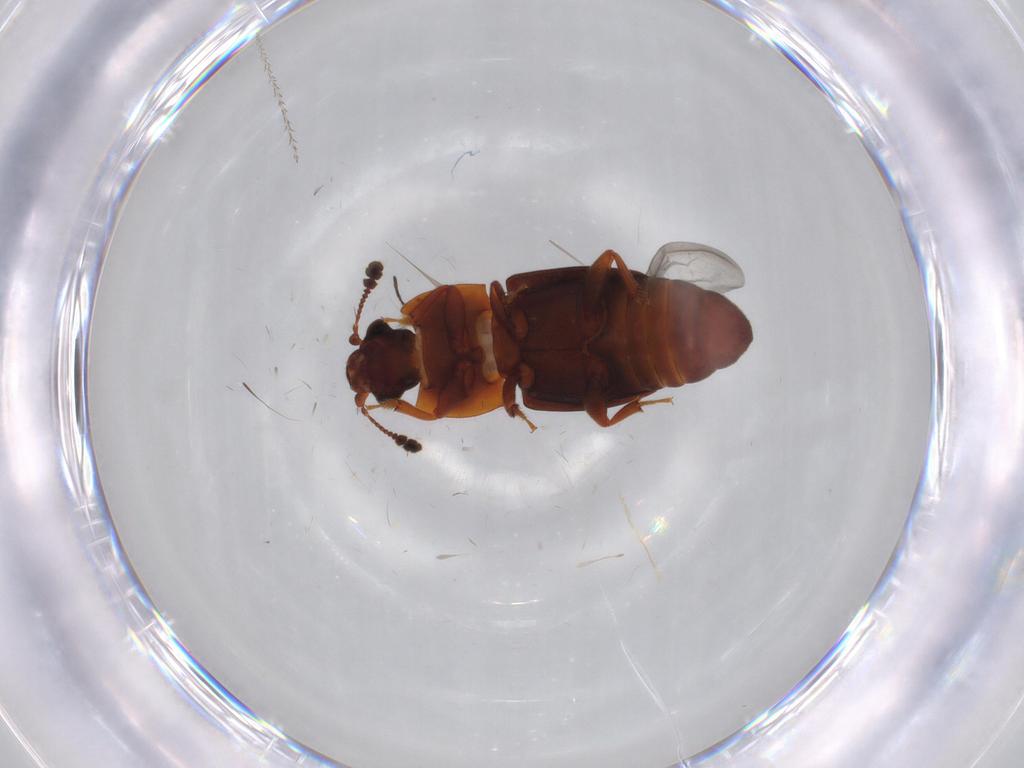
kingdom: Animalia
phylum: Arthropoda
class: Insecta
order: Coleoptera
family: Nitidulidae
